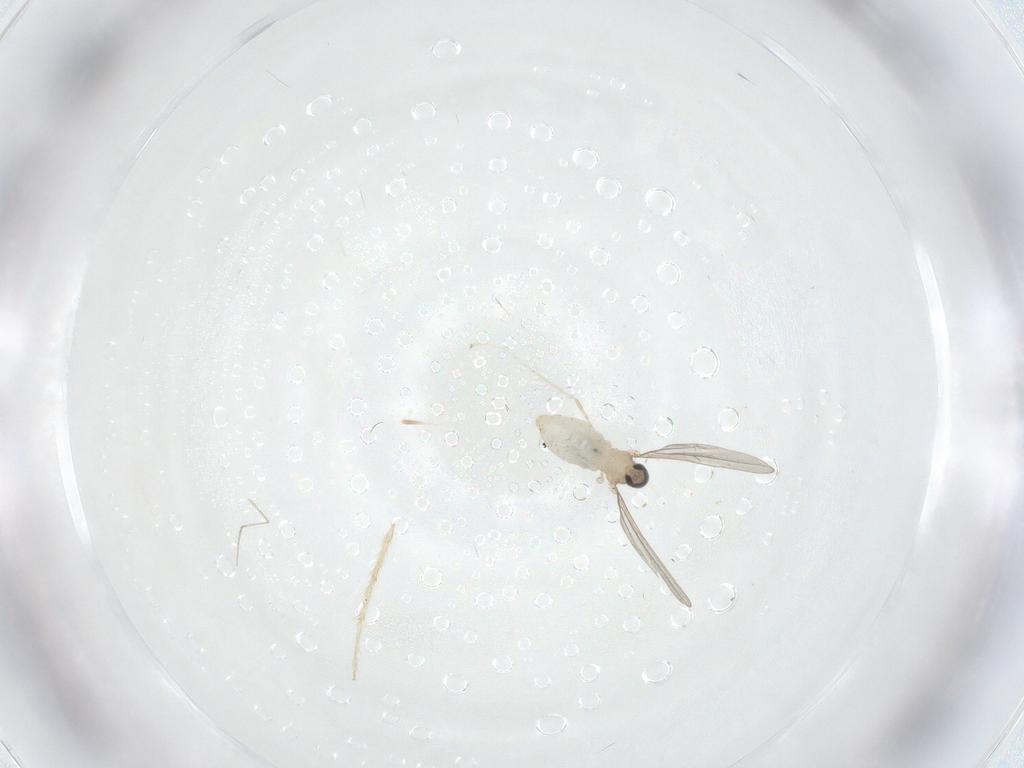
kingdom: Animalia
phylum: Arthropoda
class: Insecta
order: Diptera
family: Cecidomyiidae
